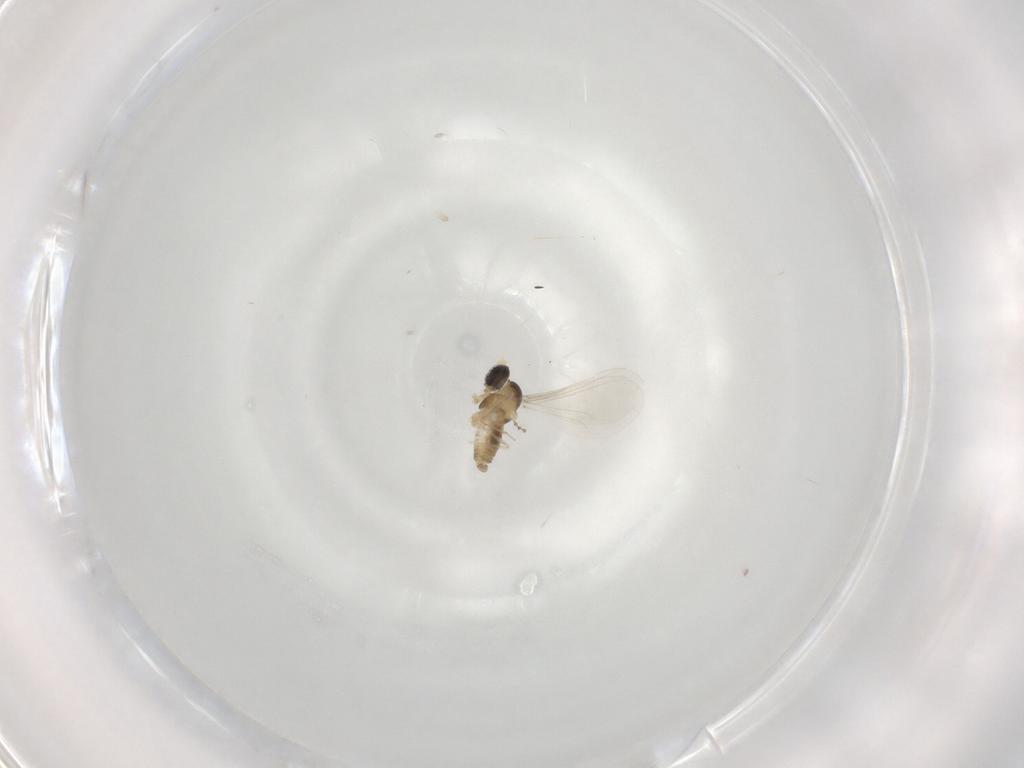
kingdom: Animalia
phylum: Arthropoda
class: Insecta
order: Diptera
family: Cecidomyiidae
